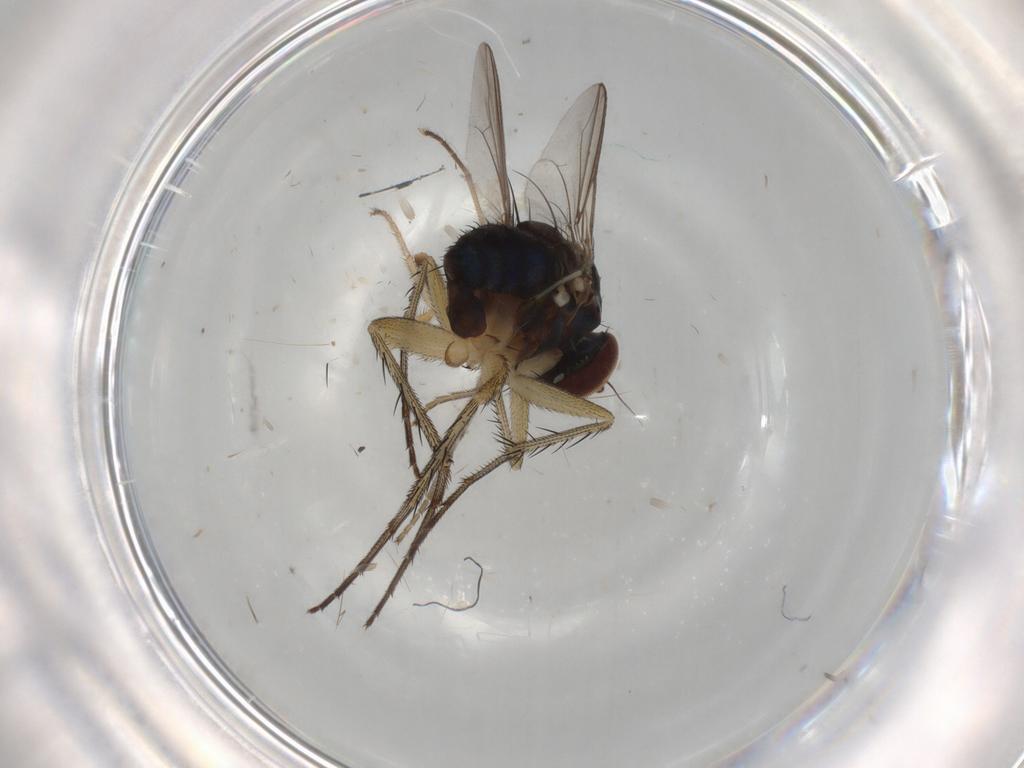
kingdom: Animalia
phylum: Arthropoda
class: Insecta
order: Diptera
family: Dolichopodidae
